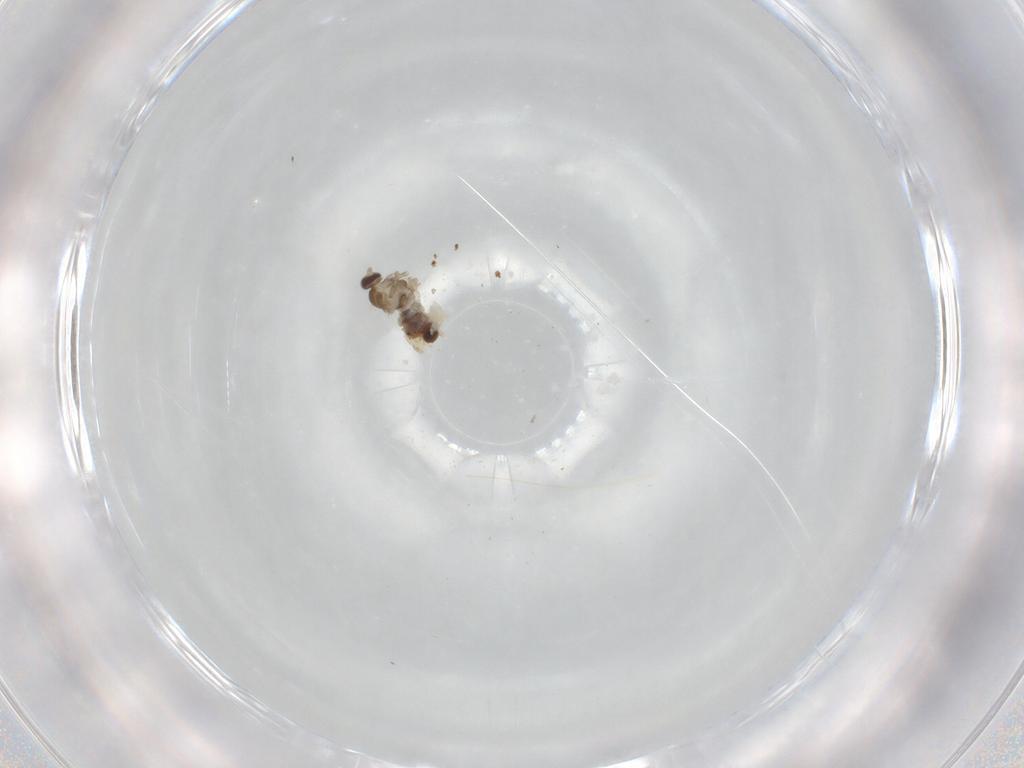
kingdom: Animalia
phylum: Arthropoda
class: Insecta
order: Diptera
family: Cecidomyiidae
